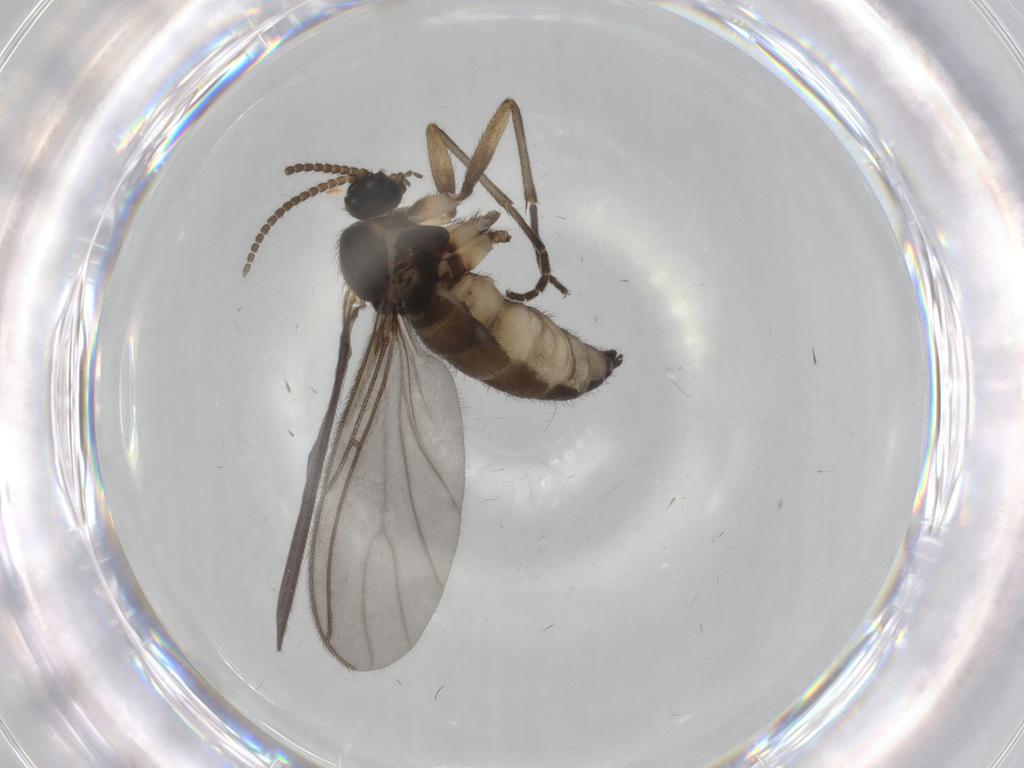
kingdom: Animalia
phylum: Arthropoda
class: Insecta
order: Diptera
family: Sciaridae
